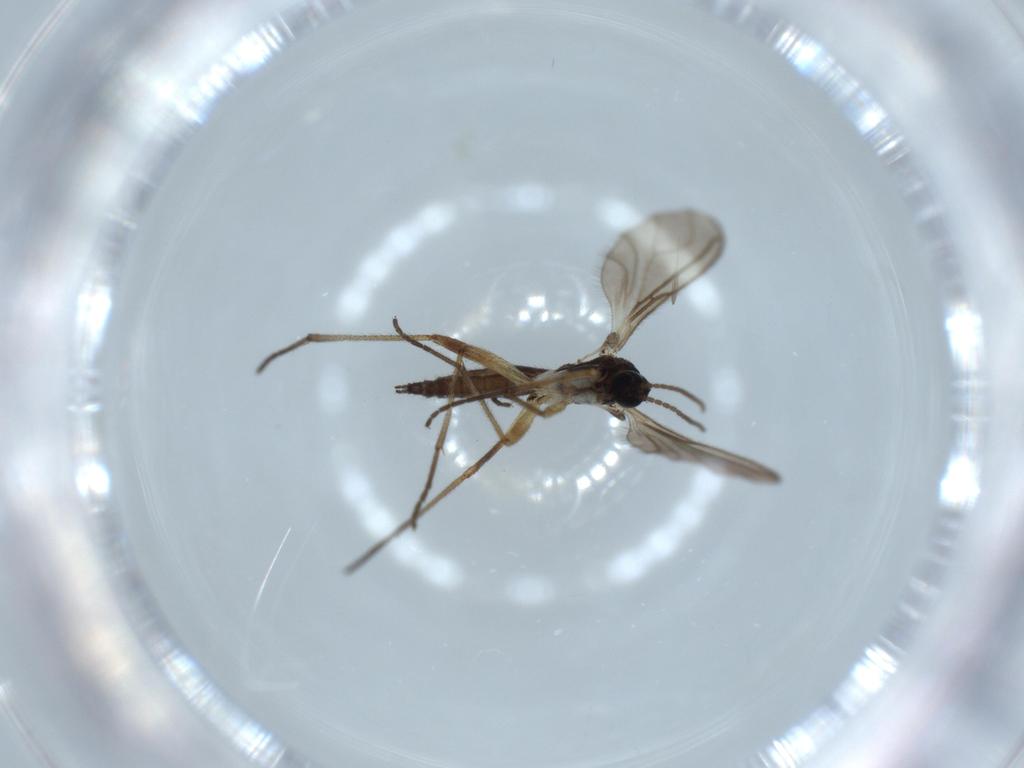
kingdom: Animalia
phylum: Arthropoda
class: Insecta
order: Diptera
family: Sciaridae
